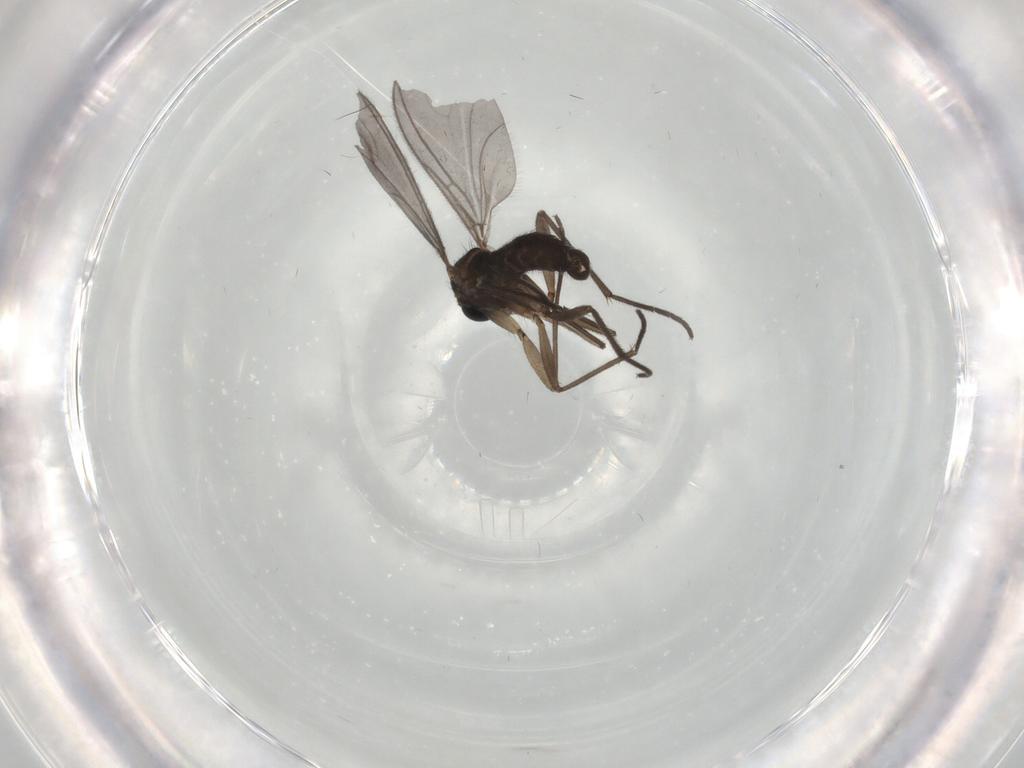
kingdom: Animalia
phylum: Arthropoda
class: Insecta
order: Diptera
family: Sciaridae
